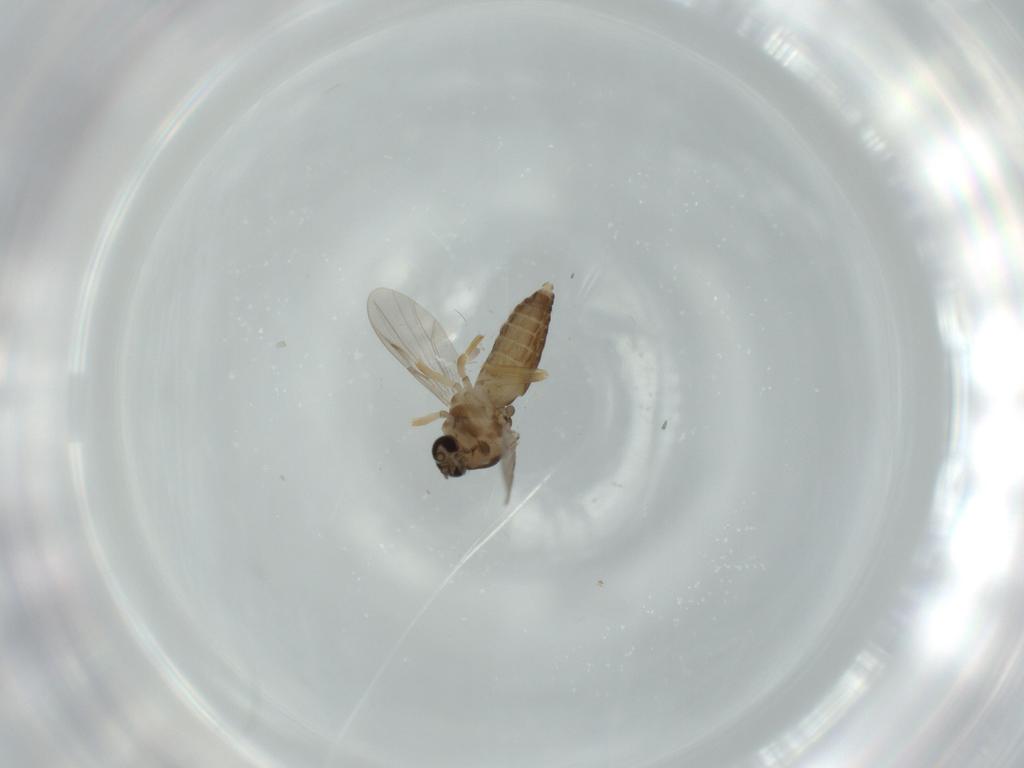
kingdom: Animalia
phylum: Arthropoda
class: Insecta
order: Diptera
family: Ceratopogonidae
